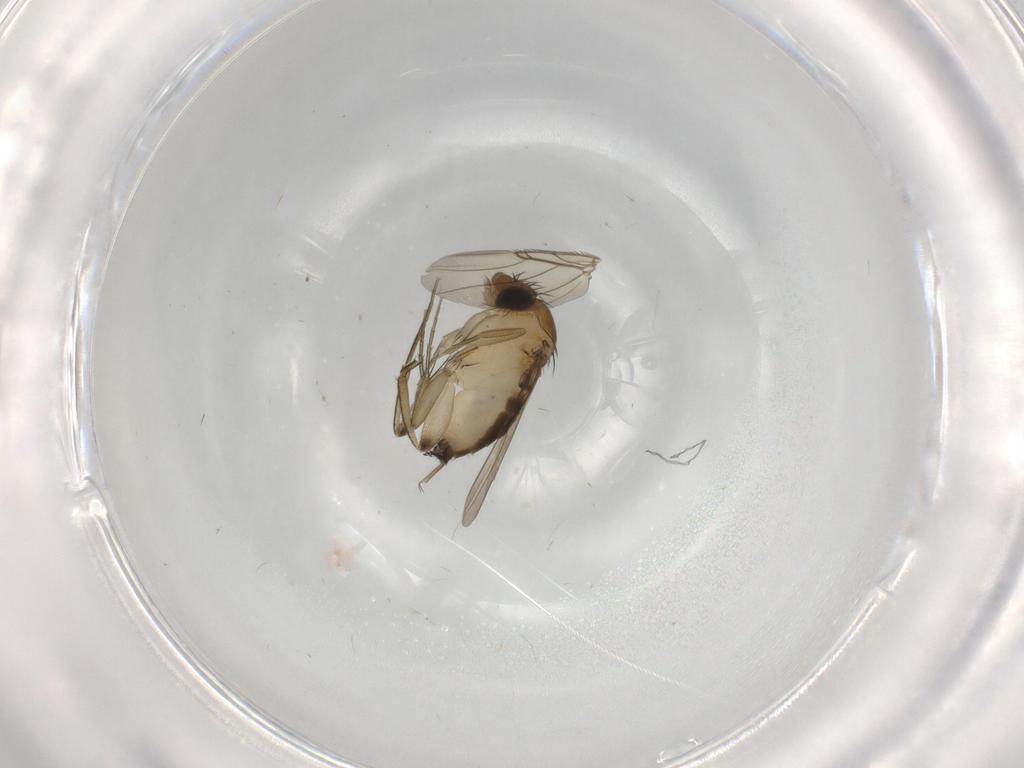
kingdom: Animalia
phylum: Arthropoda
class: Insecta
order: Diptera
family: Phoridae
